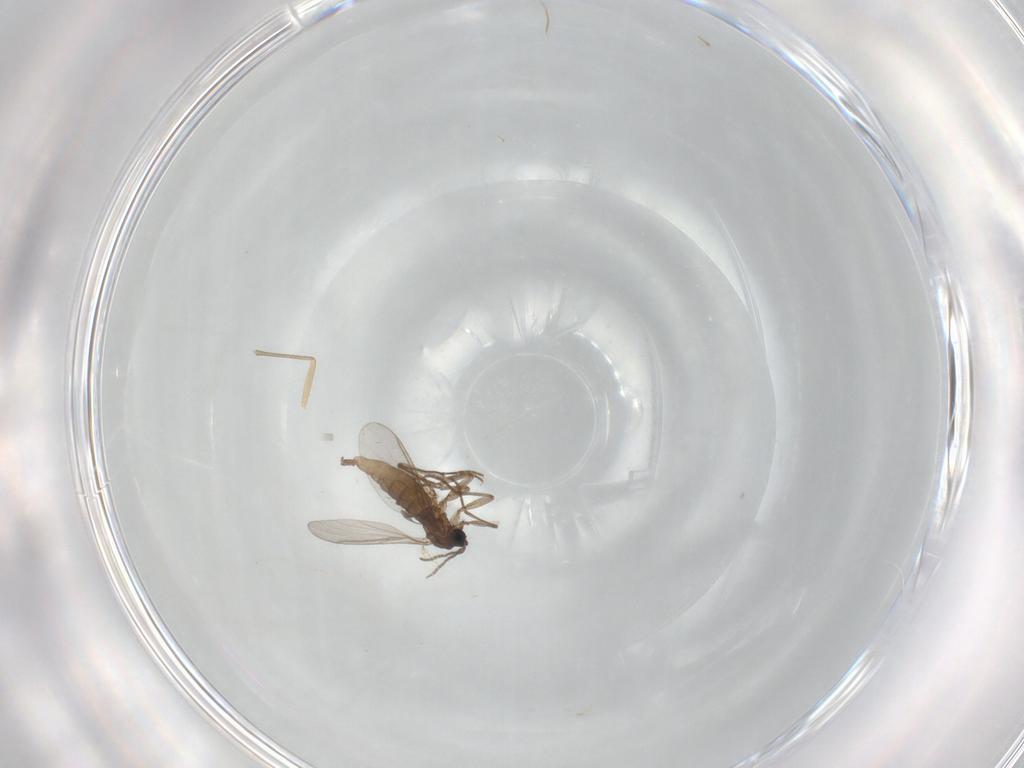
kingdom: Animalia
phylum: Arthropoda
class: Insecta
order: Diptera
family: Sciaridae
